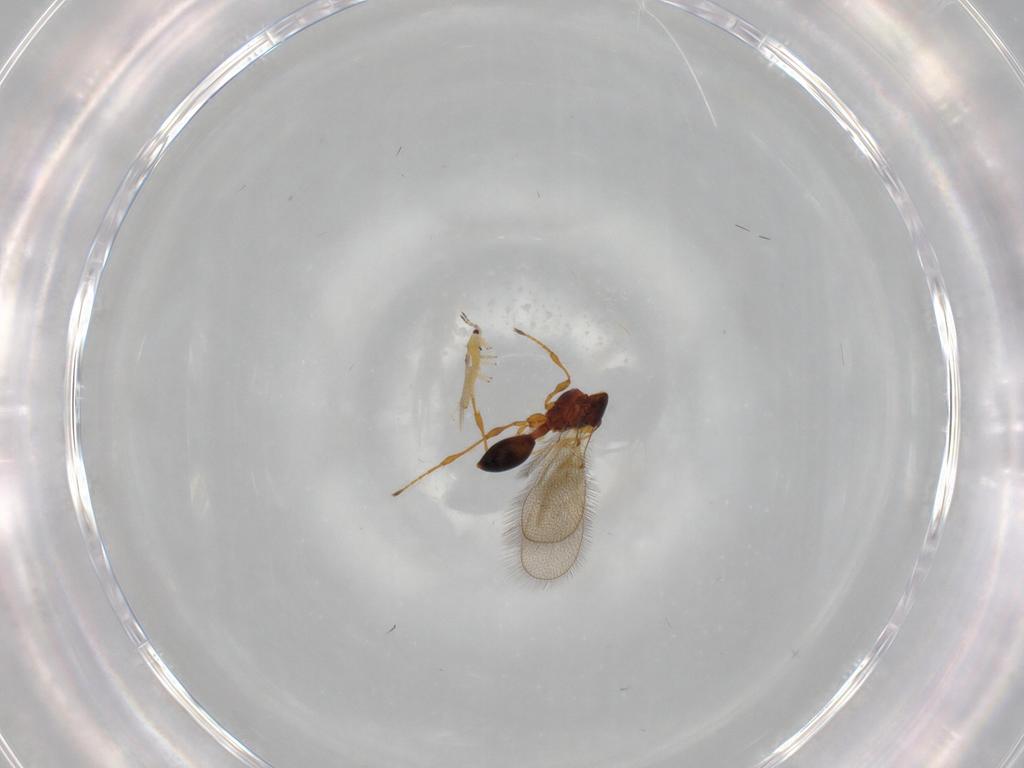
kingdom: Animalia
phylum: Arthropoda
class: Insecta
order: Hymenoptera
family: Diapriidae
